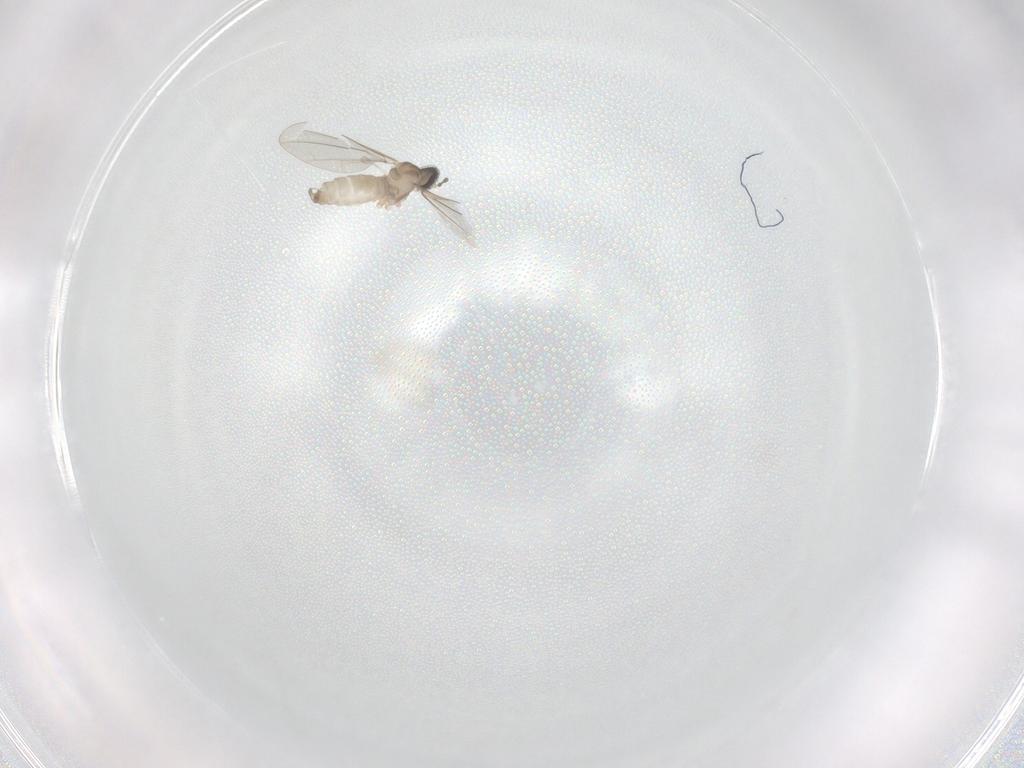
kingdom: Animalia
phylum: Arthropoda
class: Insecta
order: Diptera
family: Cecidomyiidae
